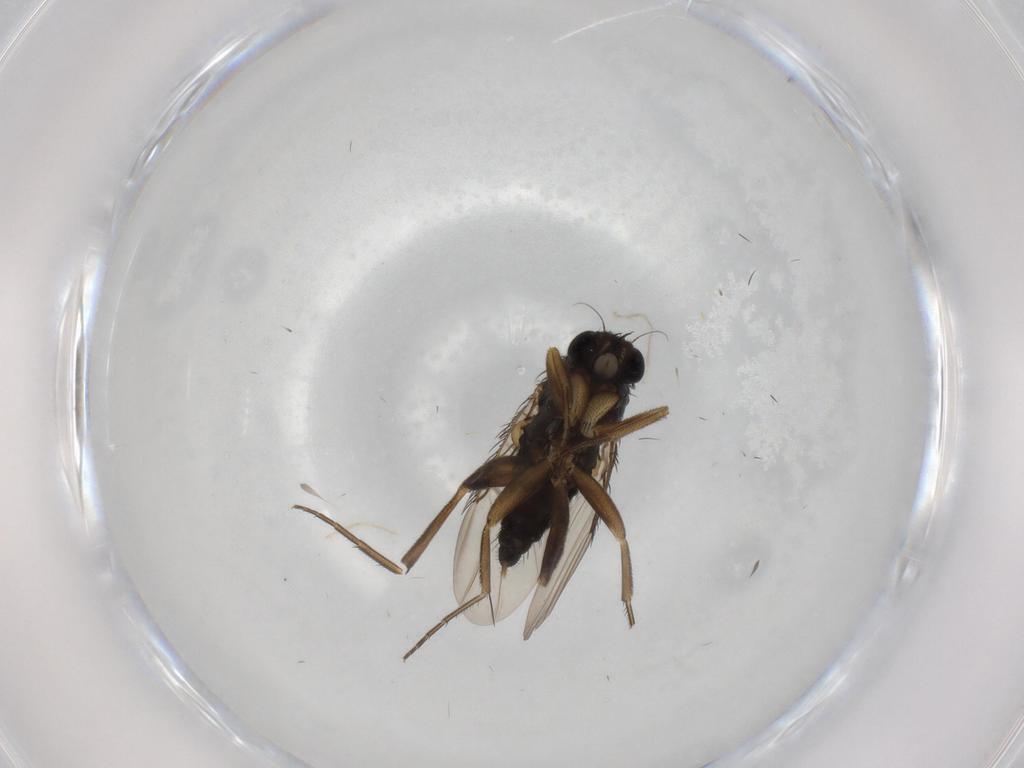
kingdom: Animalia
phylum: Arthropoda
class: Insecta
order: Diptera
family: Phoridae
